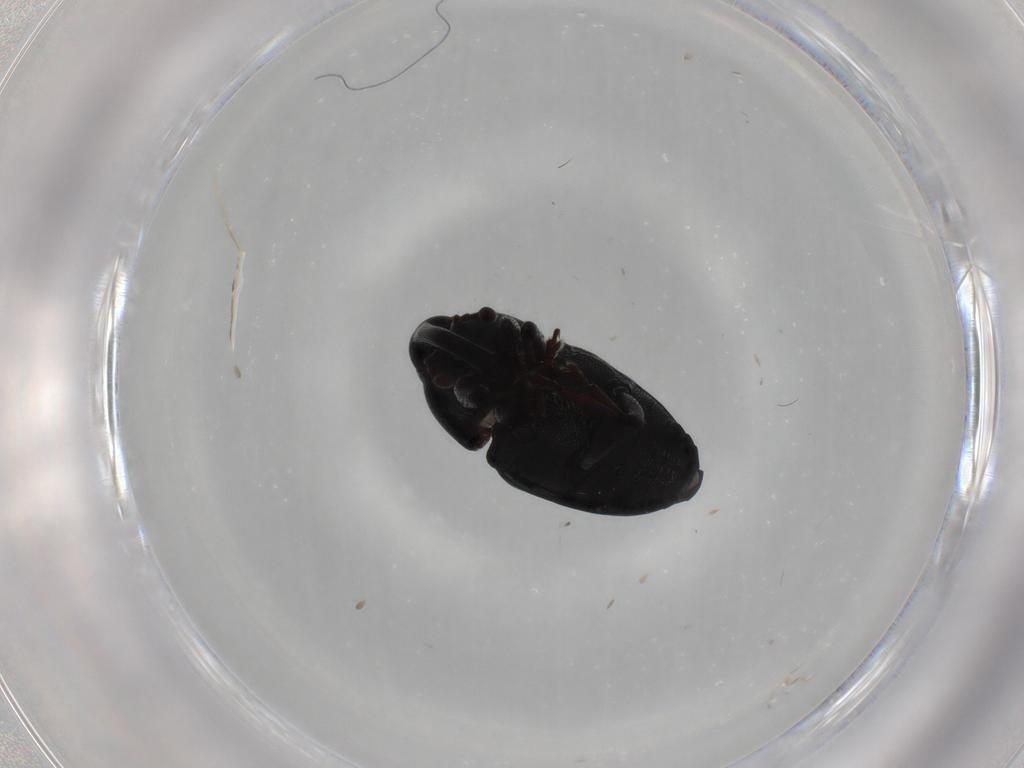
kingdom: Animalia
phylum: Arthropoda
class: Insecta
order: Coleoptera
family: Curculionidae
